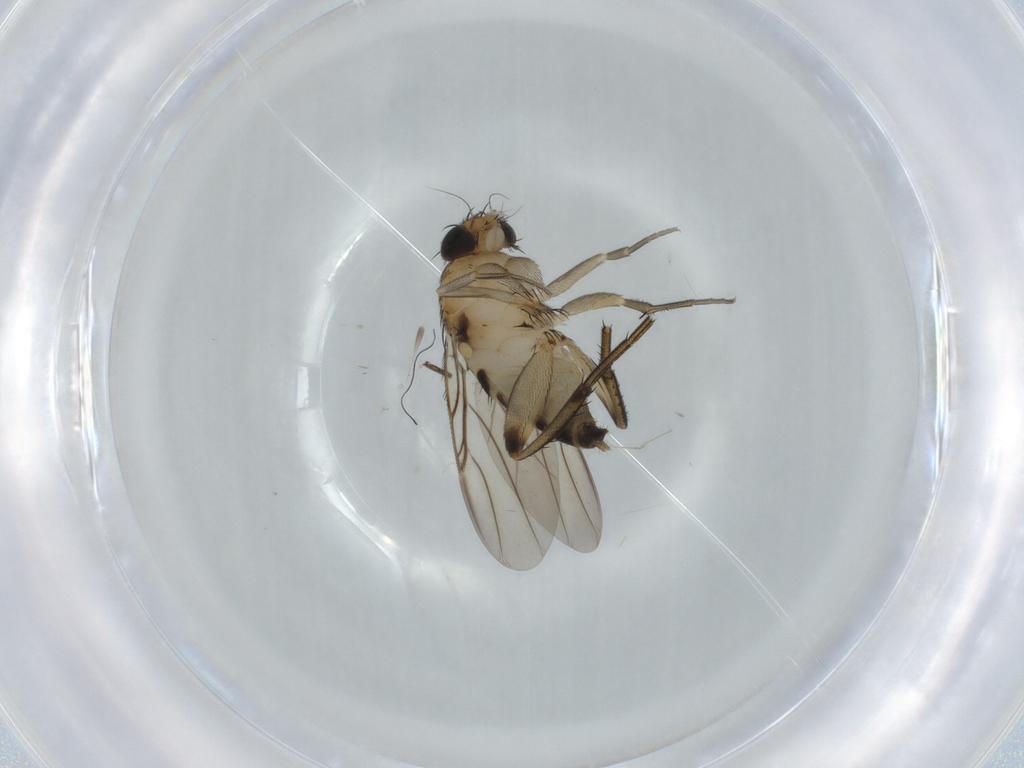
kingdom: Animalia
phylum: Arthropoda
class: Insecta
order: Diptera
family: Phoridae
